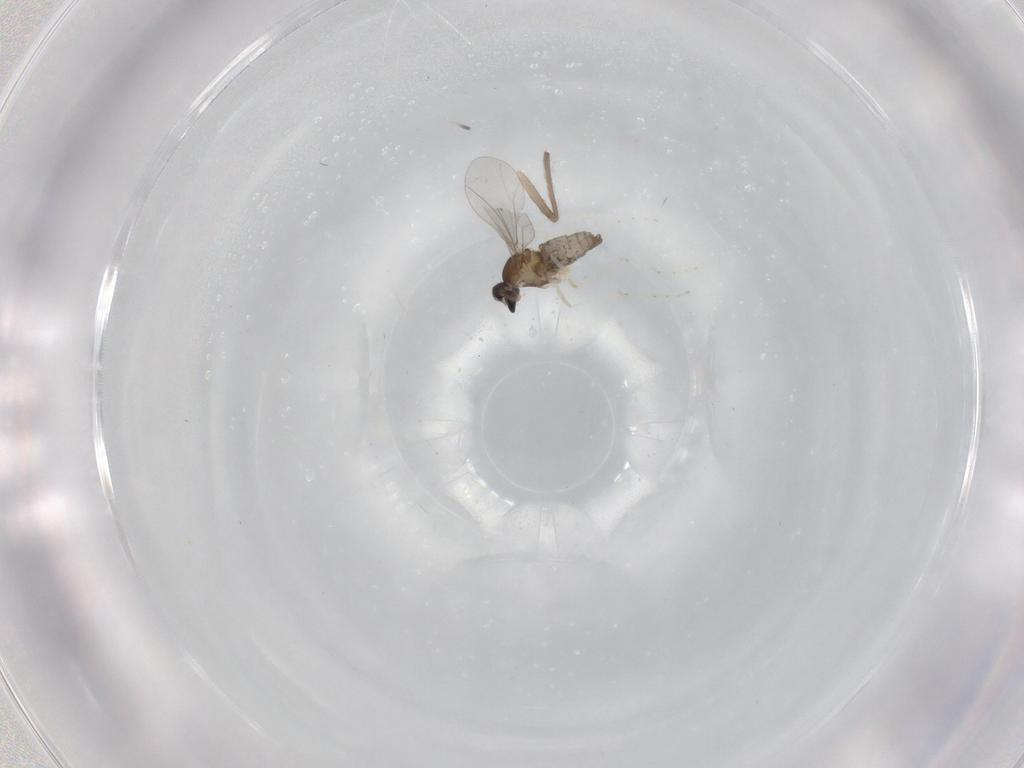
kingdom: Animalia
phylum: Arthropoda
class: Insecta
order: Diptera
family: Cecidomyiidae
